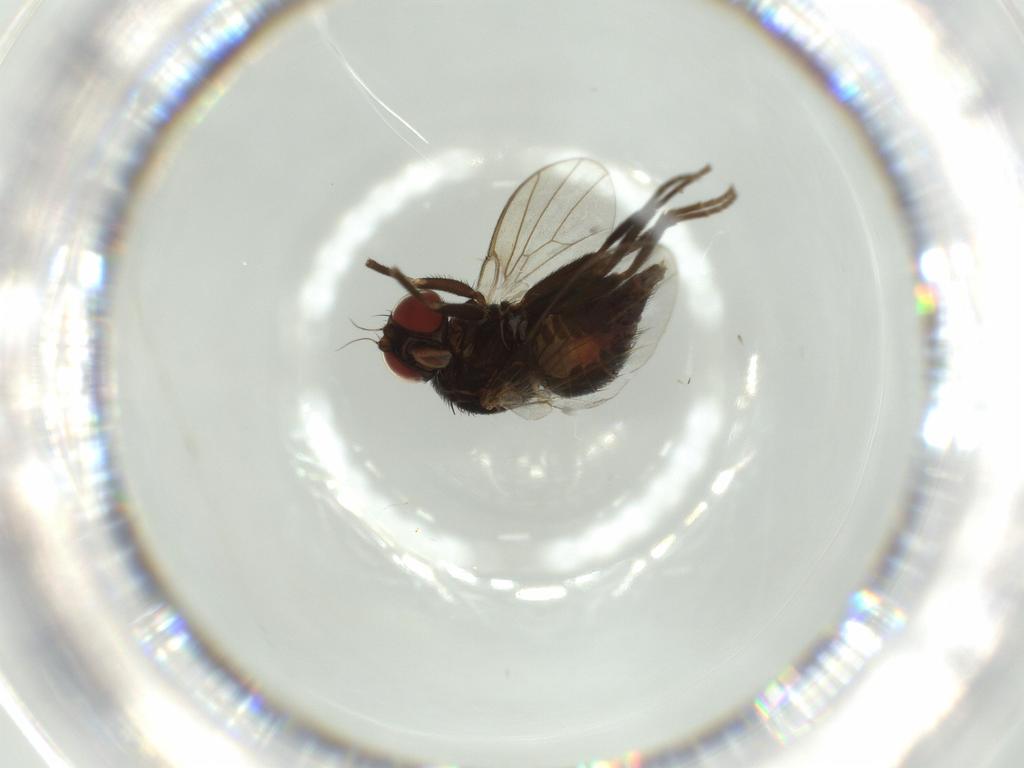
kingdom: Animalia
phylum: Arthropoda
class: Insecta
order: Diptera
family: Agromyzidae
